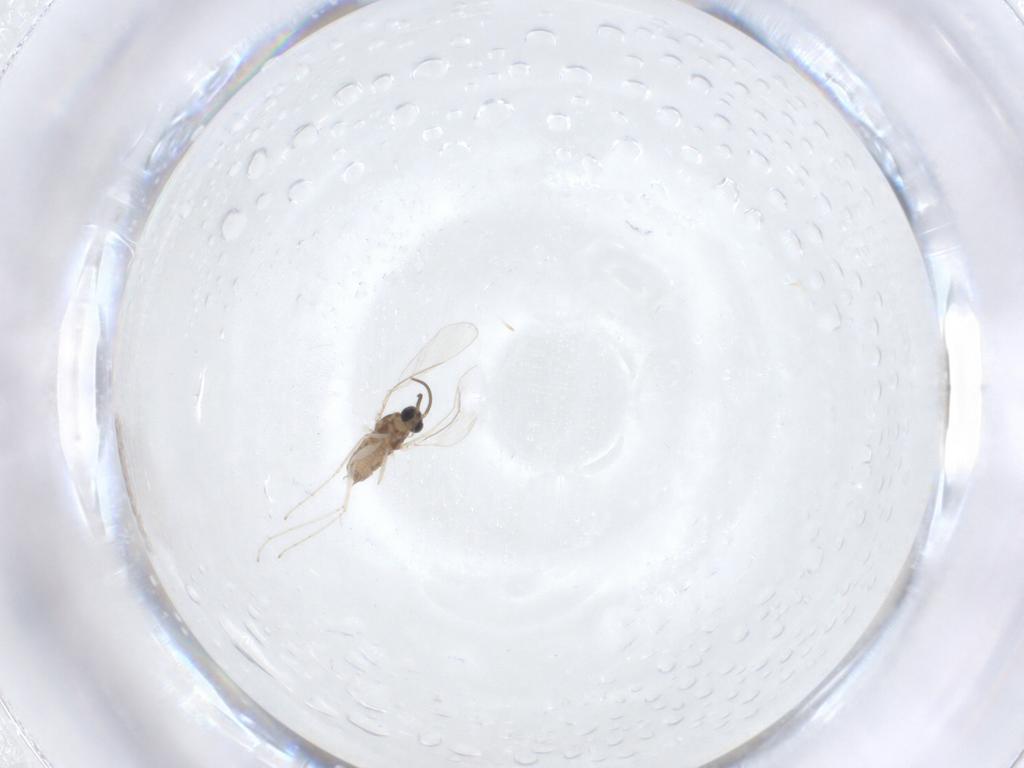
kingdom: Animalia
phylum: Arthropoda
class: Insecta
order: Diptera
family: Cecidomyiidae
